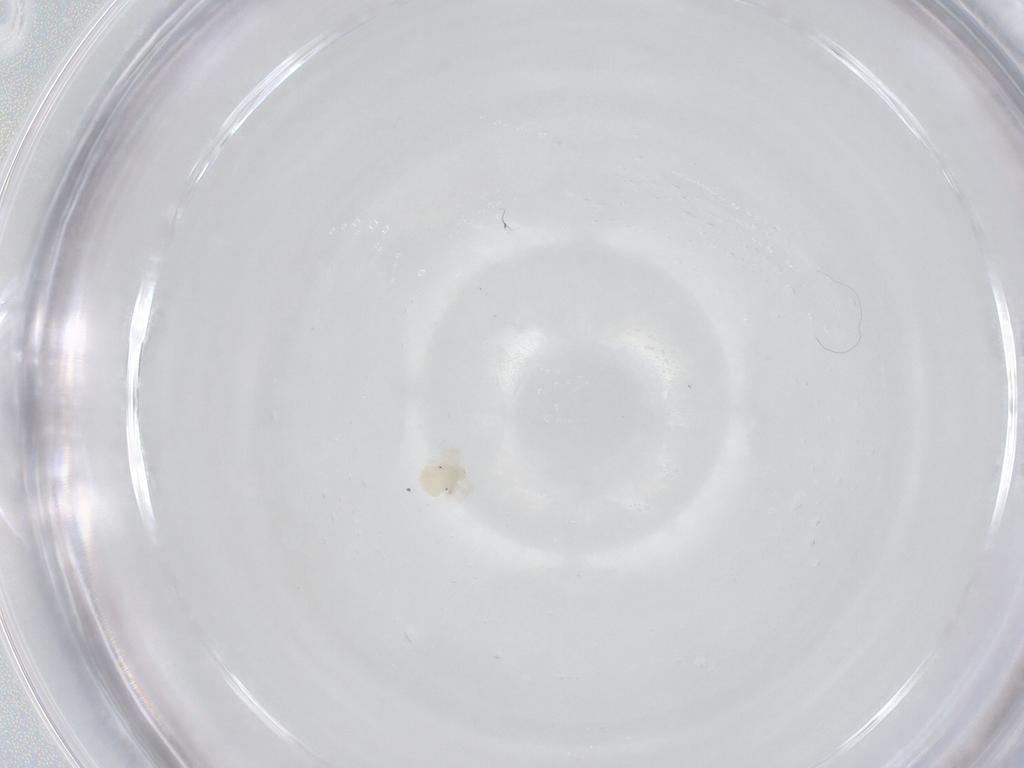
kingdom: Animalia
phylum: Arthropoda
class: Arachnida
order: Trombidiformes
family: Anystidae
